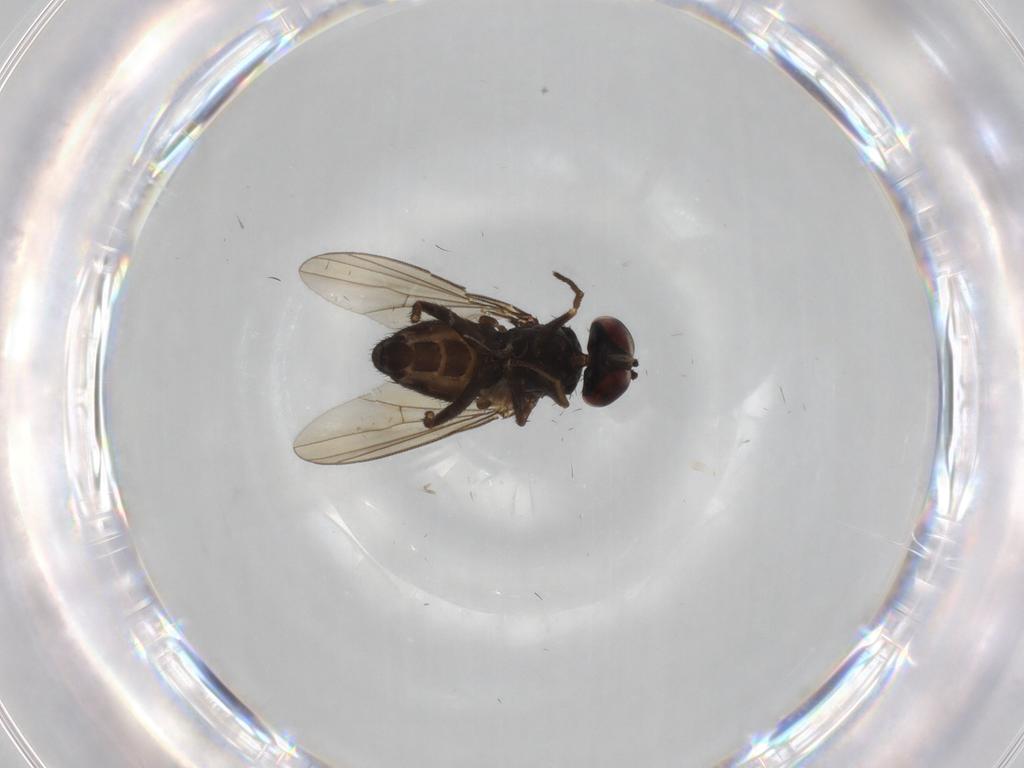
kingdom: Animalia
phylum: Arthropoda
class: Insecta
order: Diptera
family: Dolichopodidae
